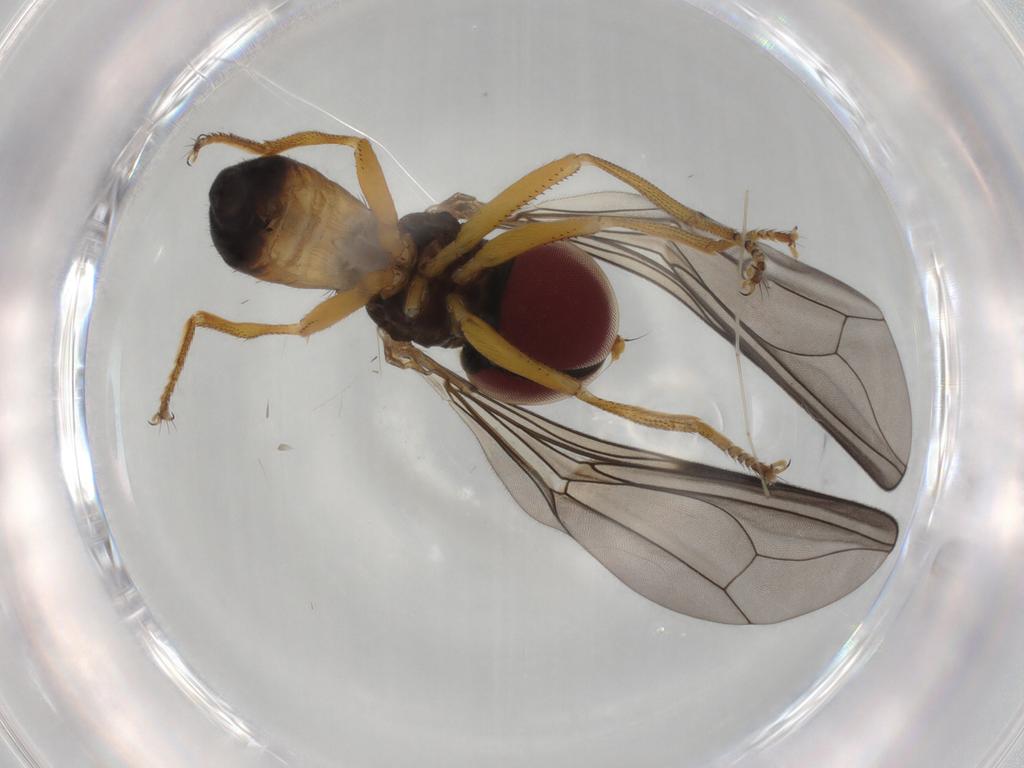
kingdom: Animalia
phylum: Arthropoda
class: Insecta
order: Diptera
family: Pipunculidae
